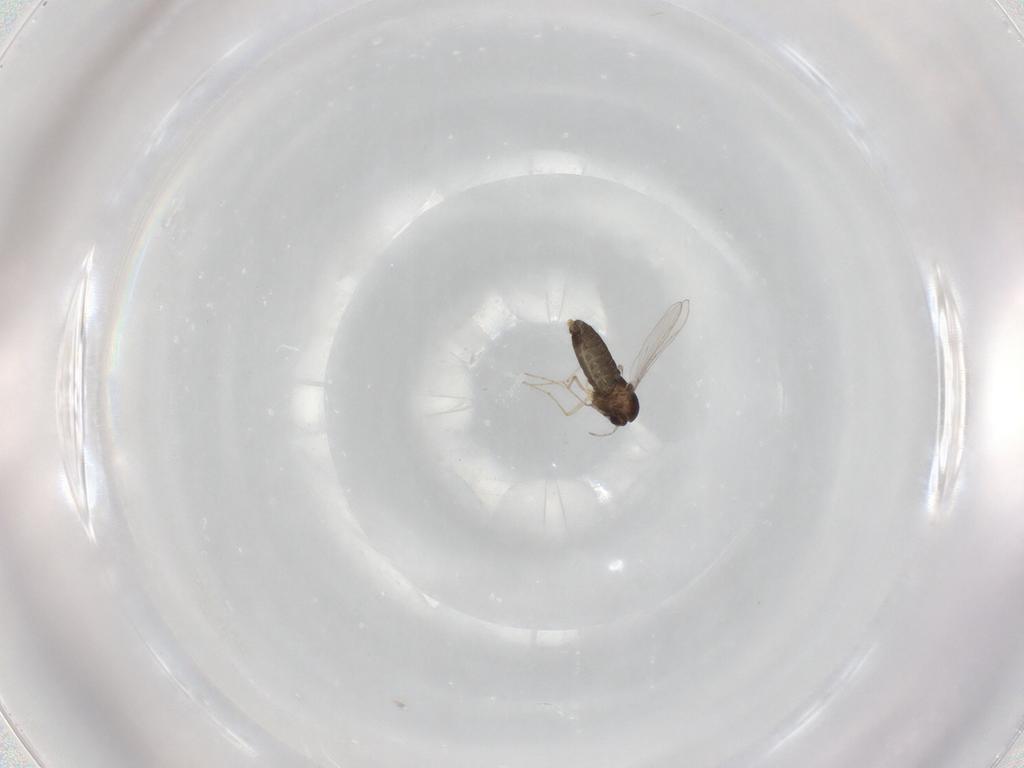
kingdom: Animalia
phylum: Arthropoda
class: Insecta
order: Diptera
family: Chironomidae
